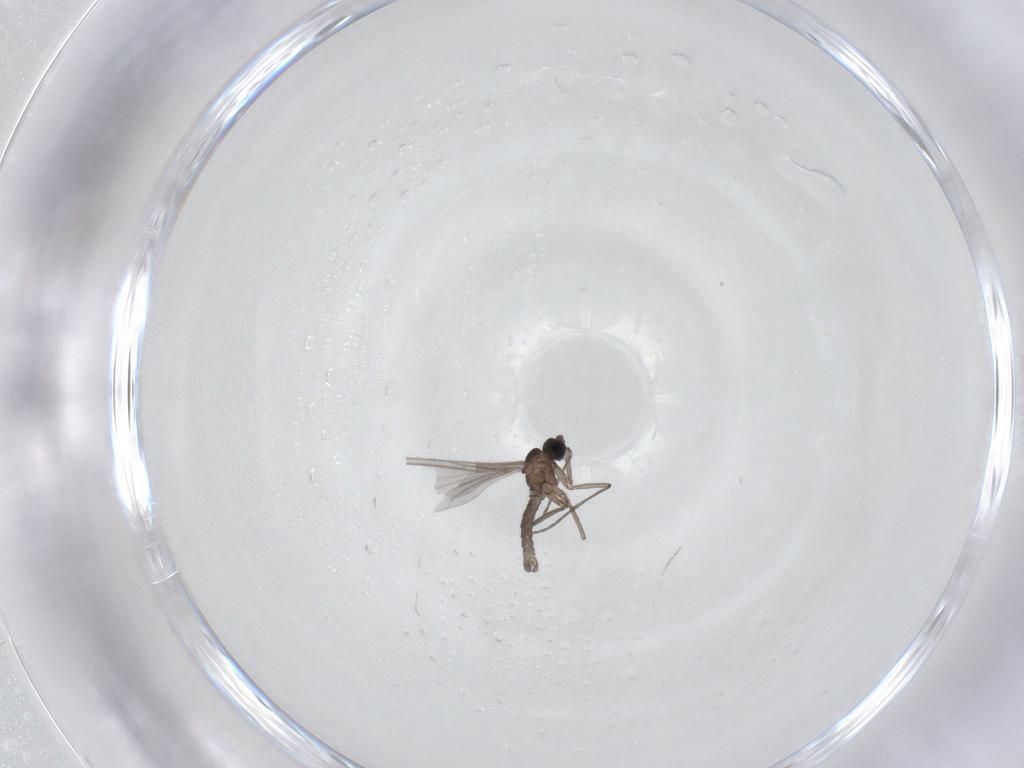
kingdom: Animalia
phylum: Arthropoda
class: Insecta
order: Diptera
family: Sciaridae
